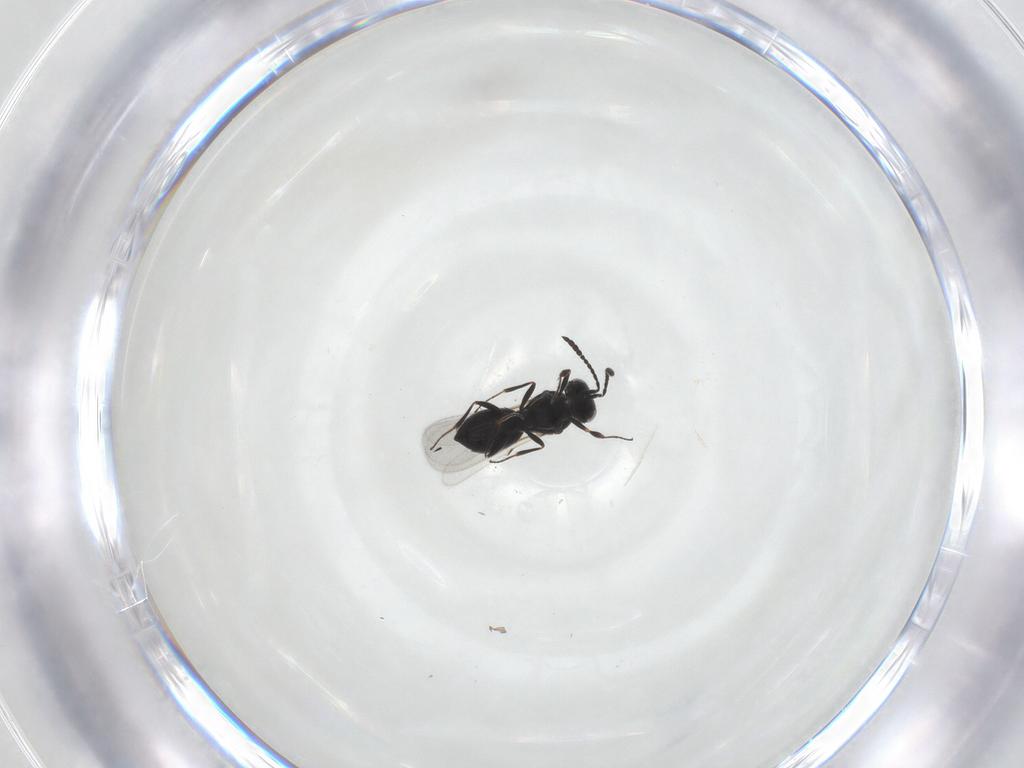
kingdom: Animalia
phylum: Arthropoda
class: Insecta
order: Hymenoptera
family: Scelionidae
